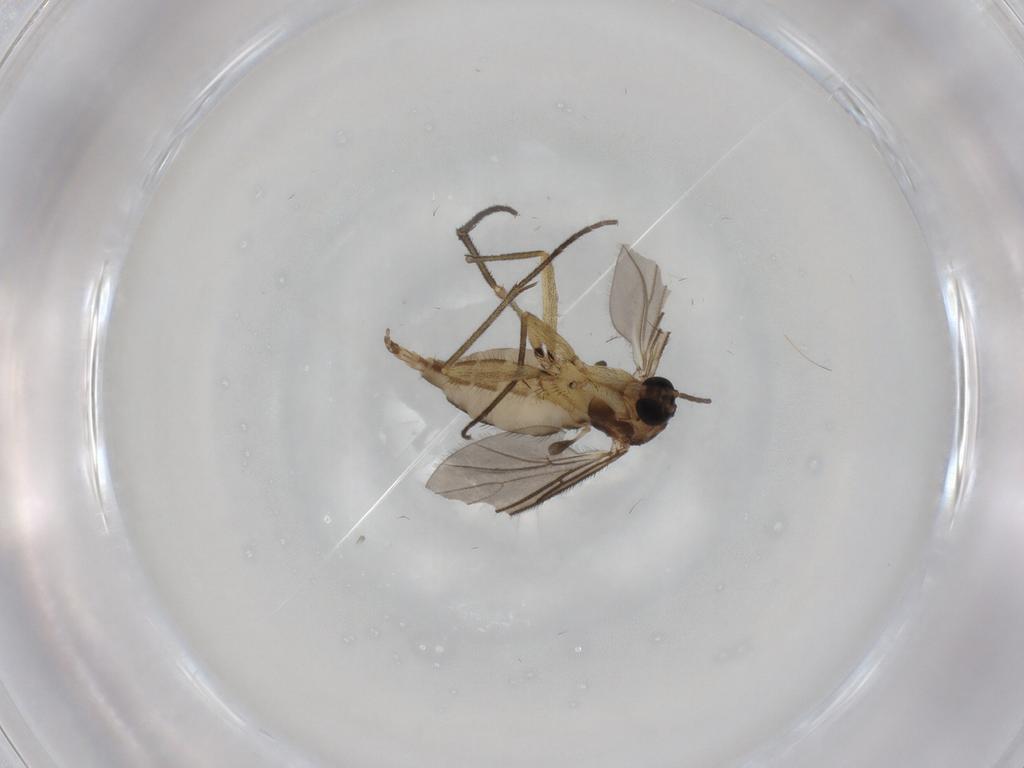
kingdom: Animalia
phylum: Arthropoda
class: Insecta
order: Diptera
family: Sciaridae
